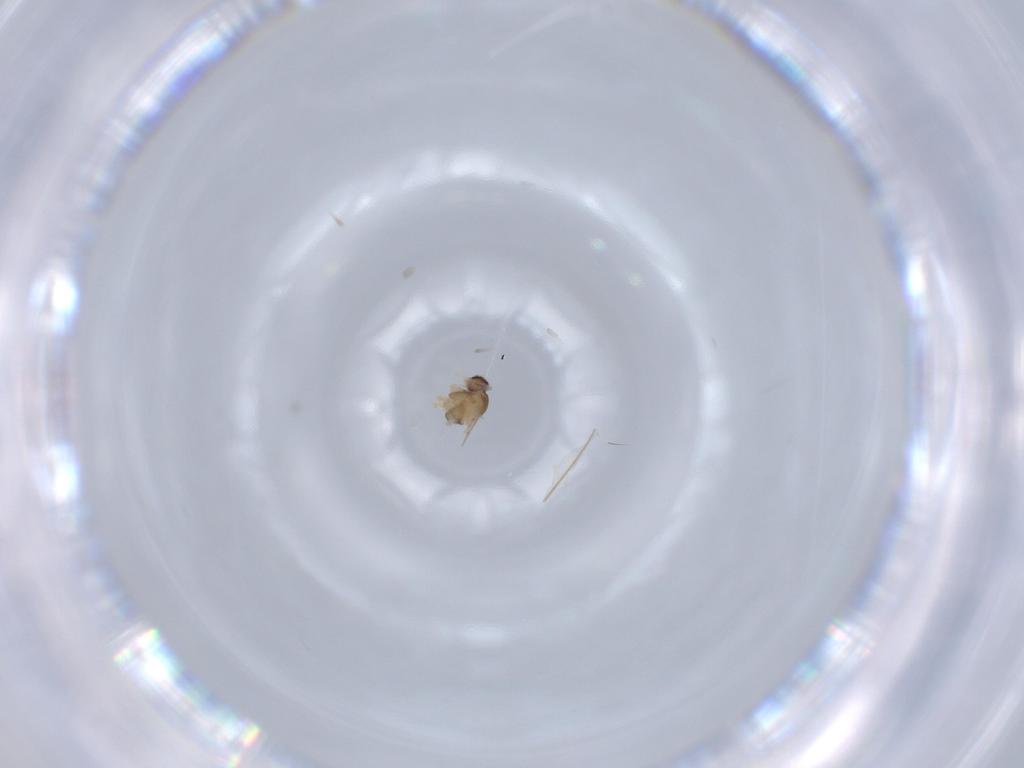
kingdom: Animalia
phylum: Arthropoda
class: Insecta
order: Diptera
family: Cecidomyiidae
